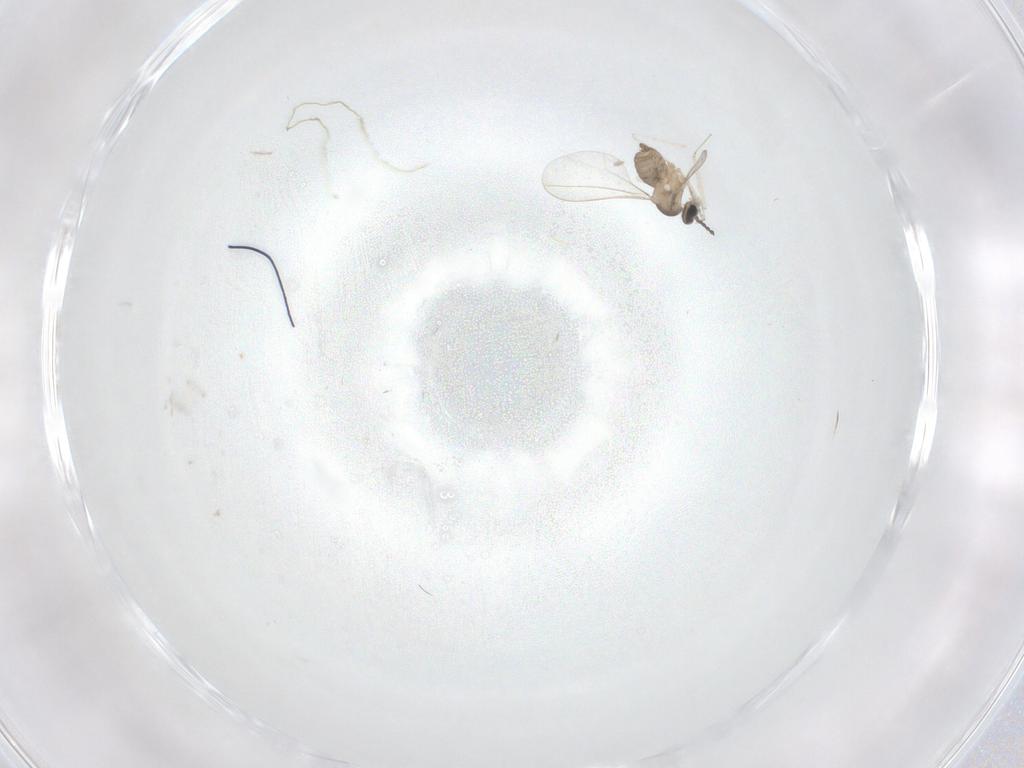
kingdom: Animalia
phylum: Arthropoda
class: Insecta
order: Diptera
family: Cecidomyiidae
